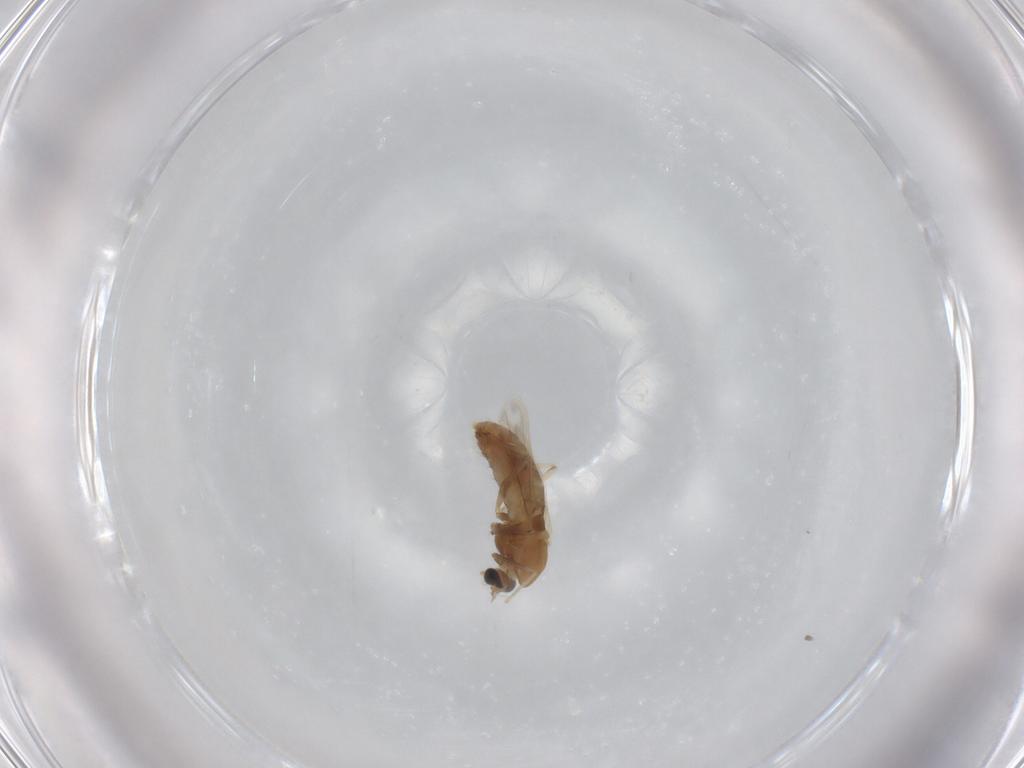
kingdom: Animalia
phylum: Arthropoda
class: Insecta
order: Diptera
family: Chironomidae
